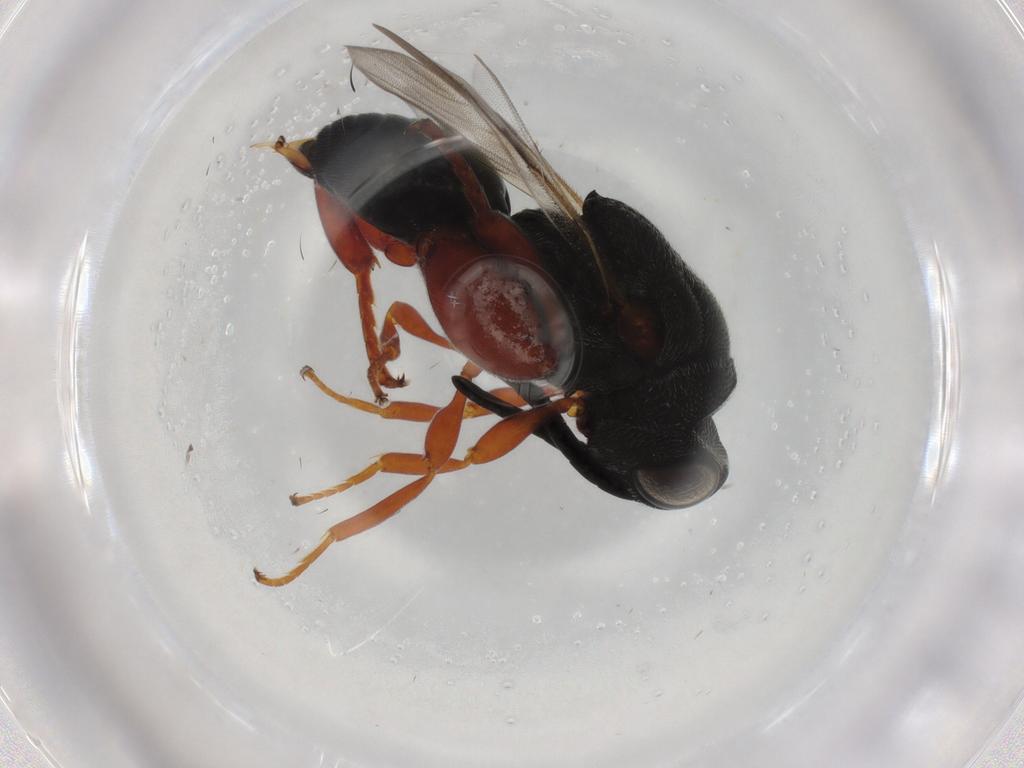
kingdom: Animalia
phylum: Arthropoda
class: Insecta
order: Hymenoptera
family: Chalcididae
